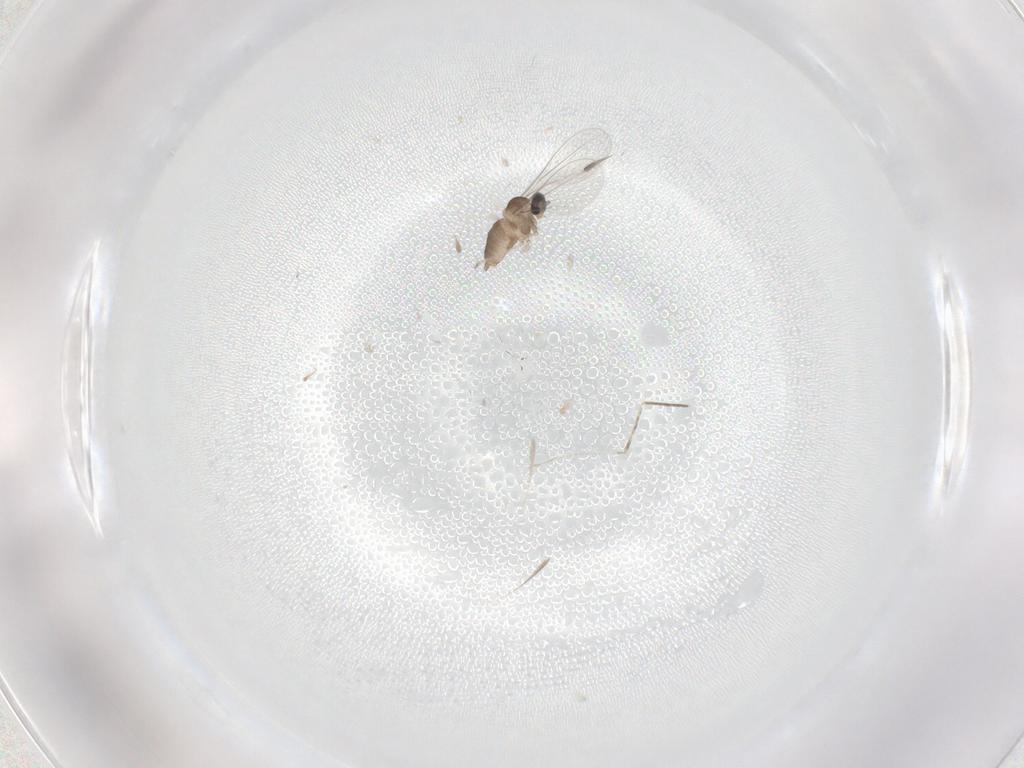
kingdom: Animalia
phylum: Arthropoda
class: Insecta
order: Diptera
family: Cecidomyiidae
